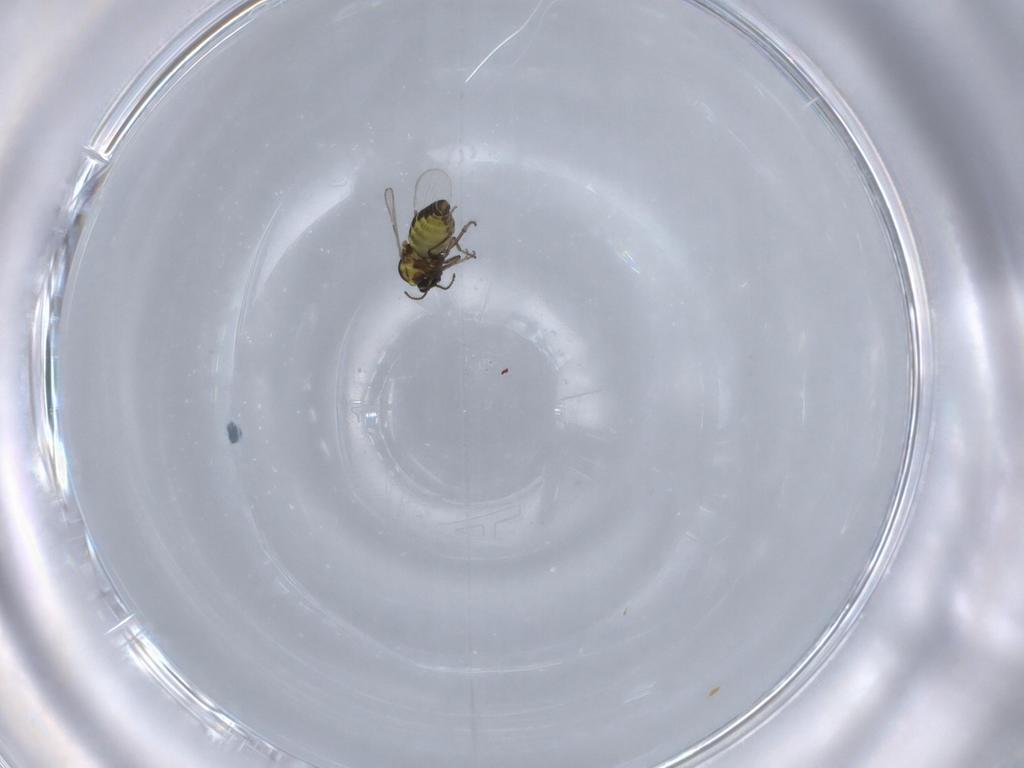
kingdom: Animalia
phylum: Arthropoda
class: Insecta
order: Diptera
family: Ceratopogonidae
